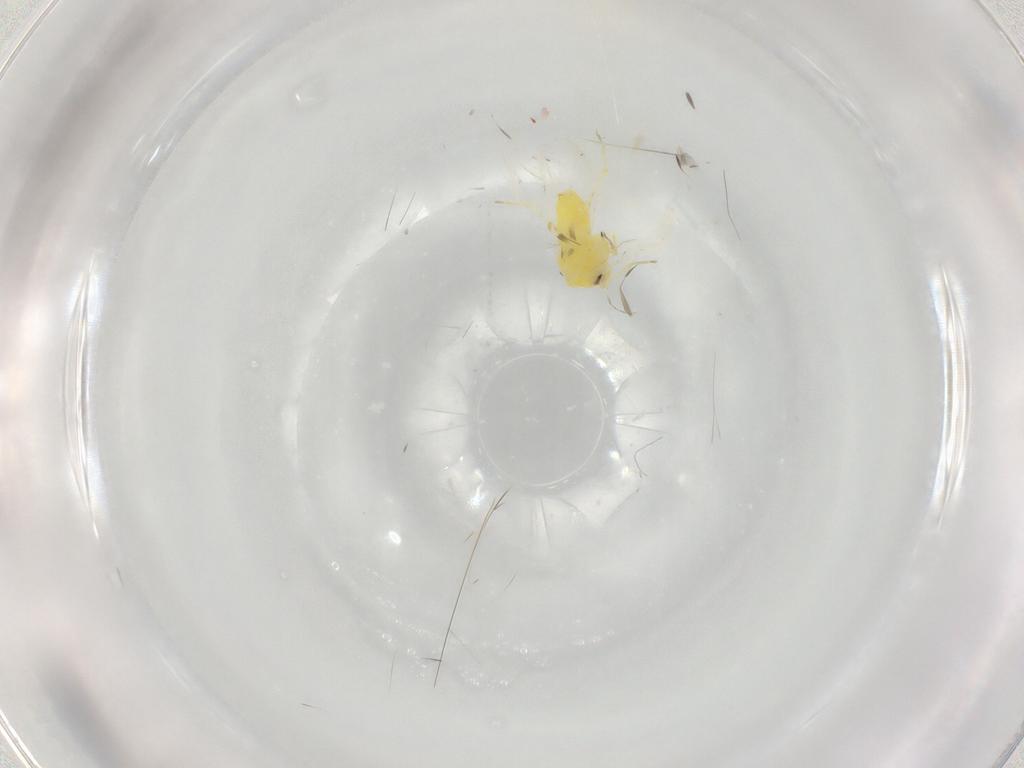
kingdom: Animalia
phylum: Arthropoda
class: Insecta
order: Hemiptera
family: Aleyrodidae
